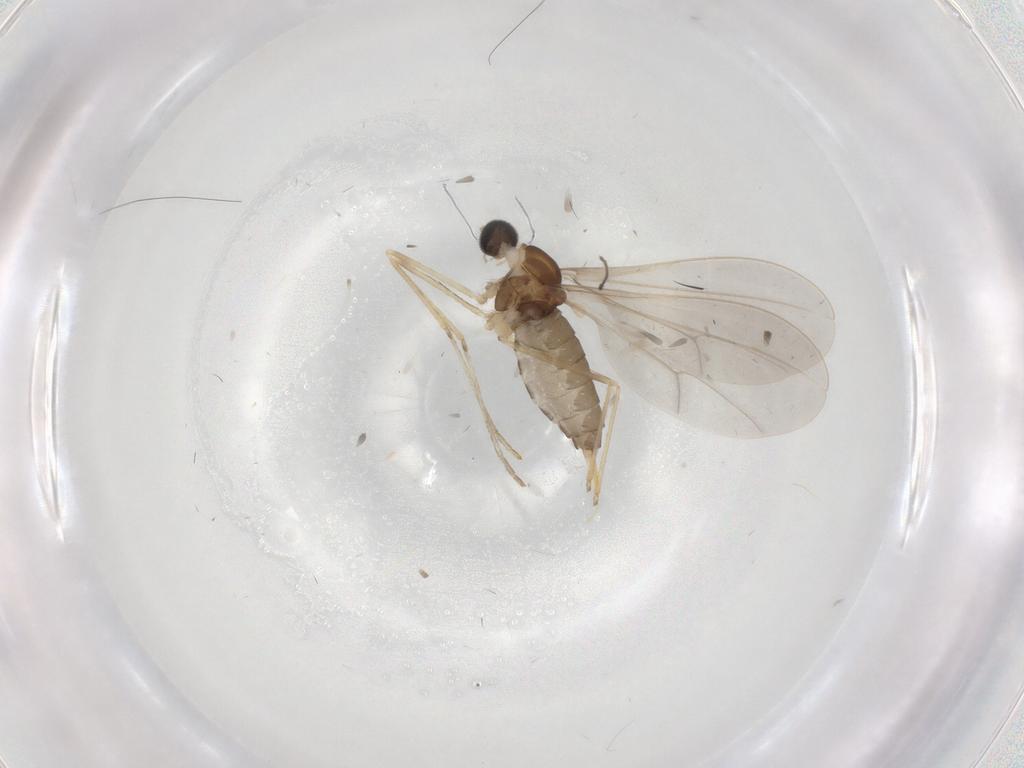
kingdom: Animalia
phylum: Arthropoda
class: Insecta
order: Diptera
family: Cecidomyiidae
